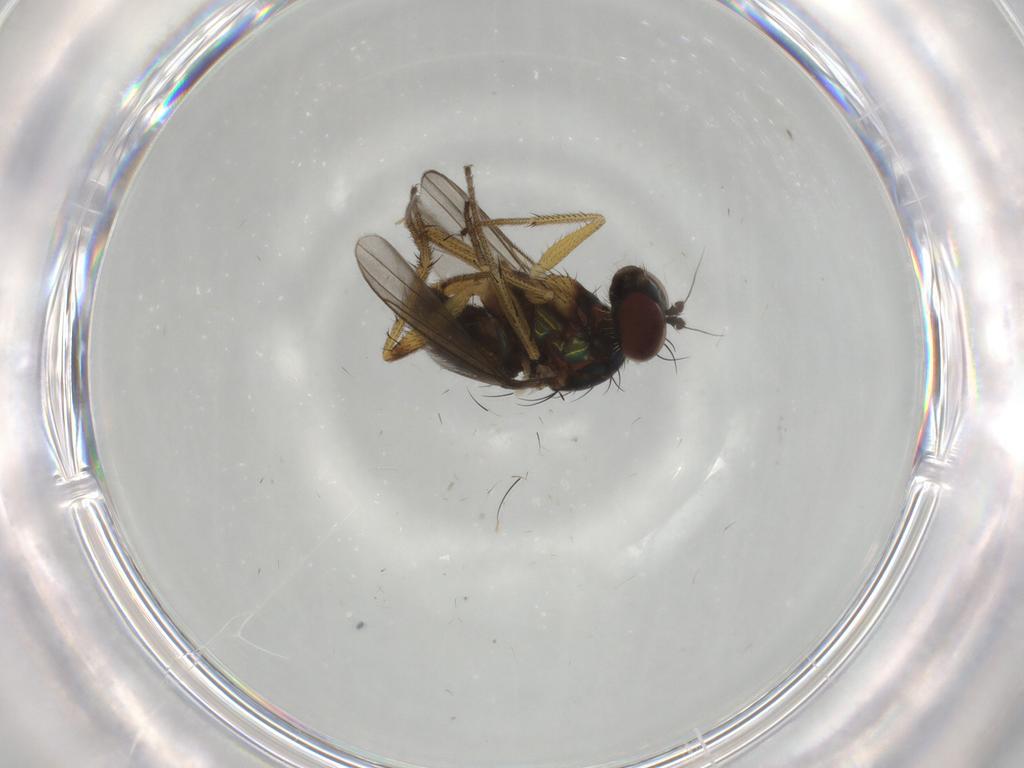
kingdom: Animalia
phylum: Arthropoda
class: Insecta
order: Diptera
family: Dolichopodidae
